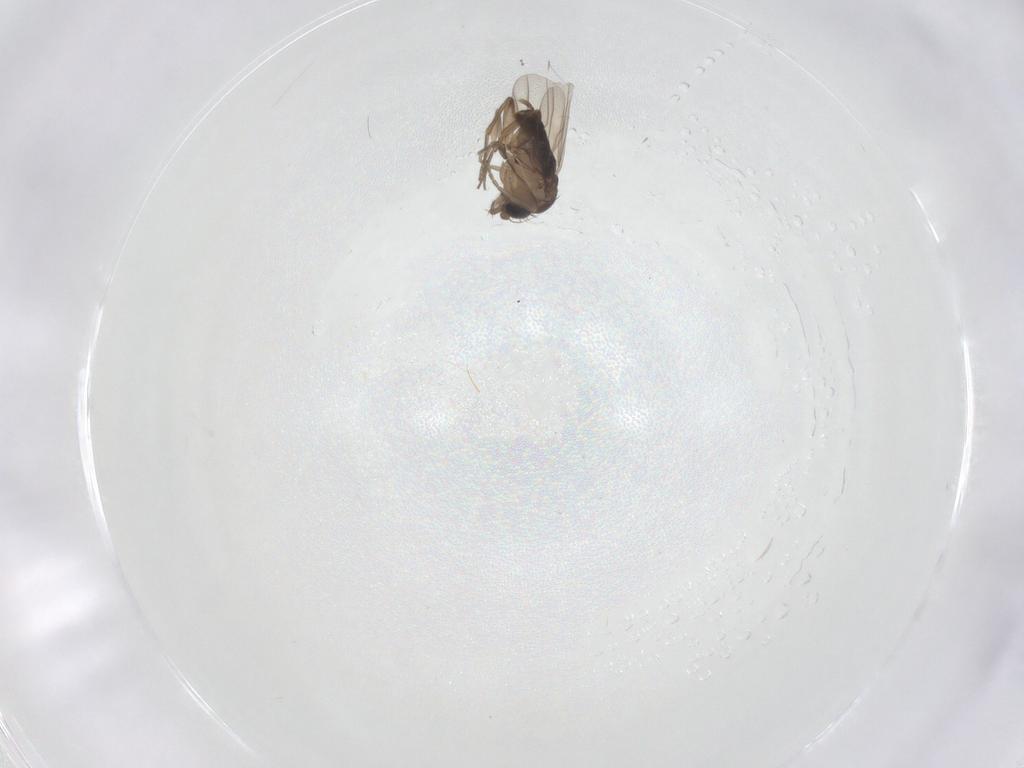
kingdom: Animalia
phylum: Arthropoda
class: Insecta
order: Diptera
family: Phoridae
